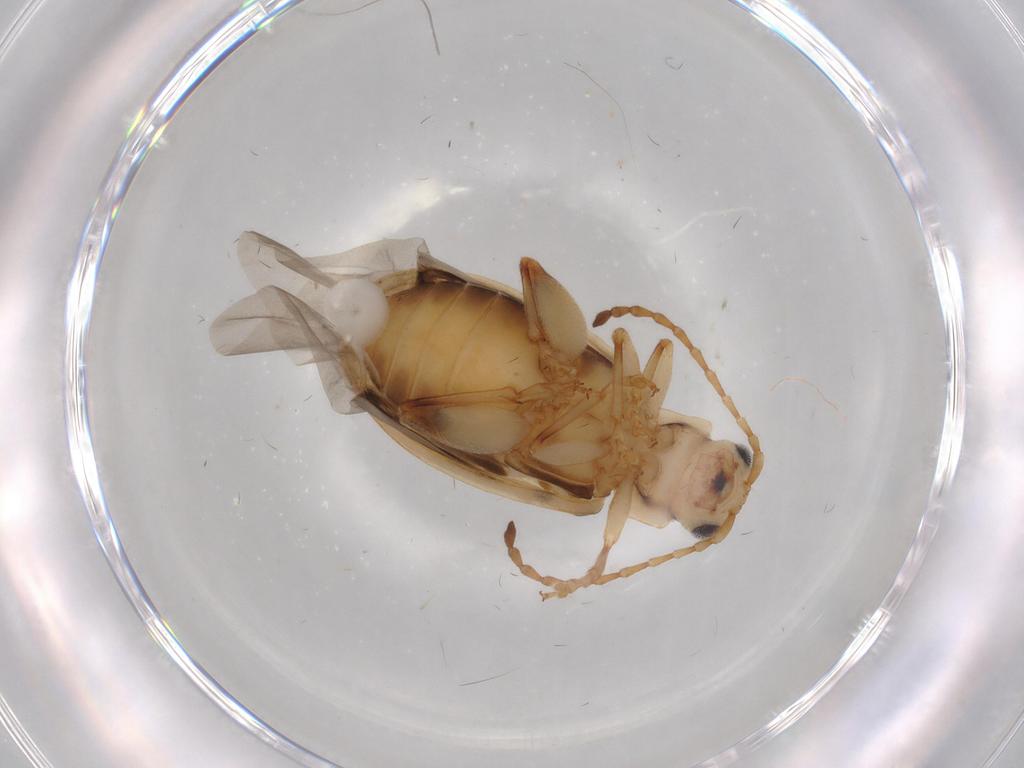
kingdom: Animalia
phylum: Arthropoda
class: Insecta
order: Coleoptera
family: Chrysomelidae
